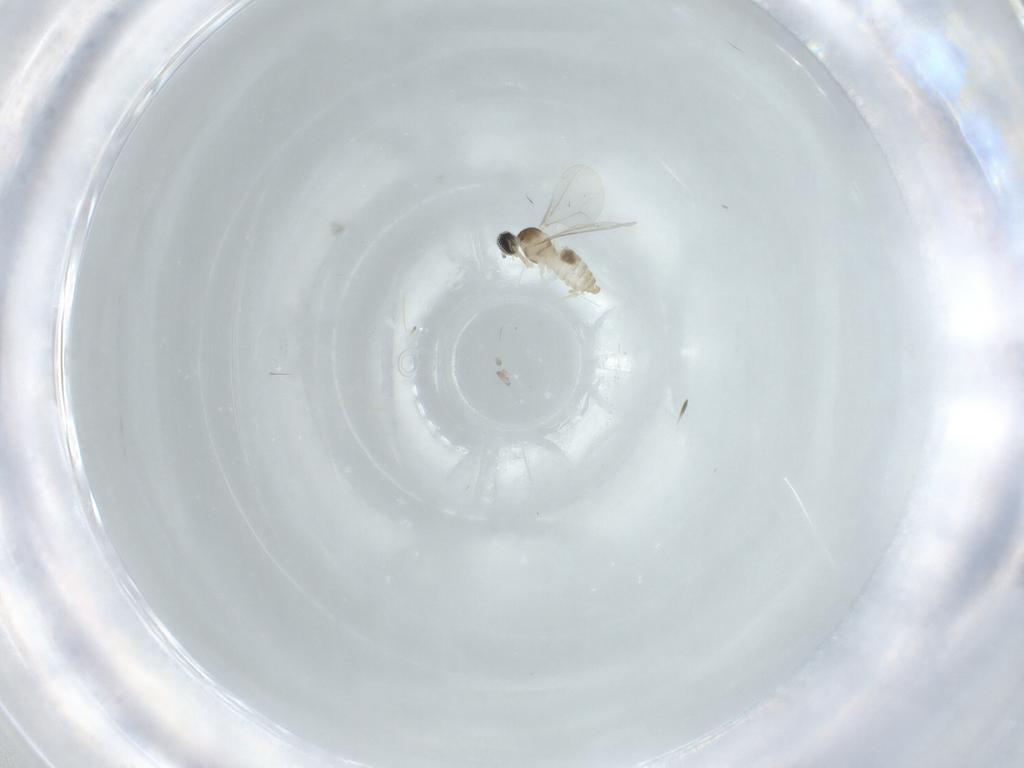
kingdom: Animalia
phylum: Arthropoda
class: Insecta
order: Diptera
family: Cecidomyiidae
